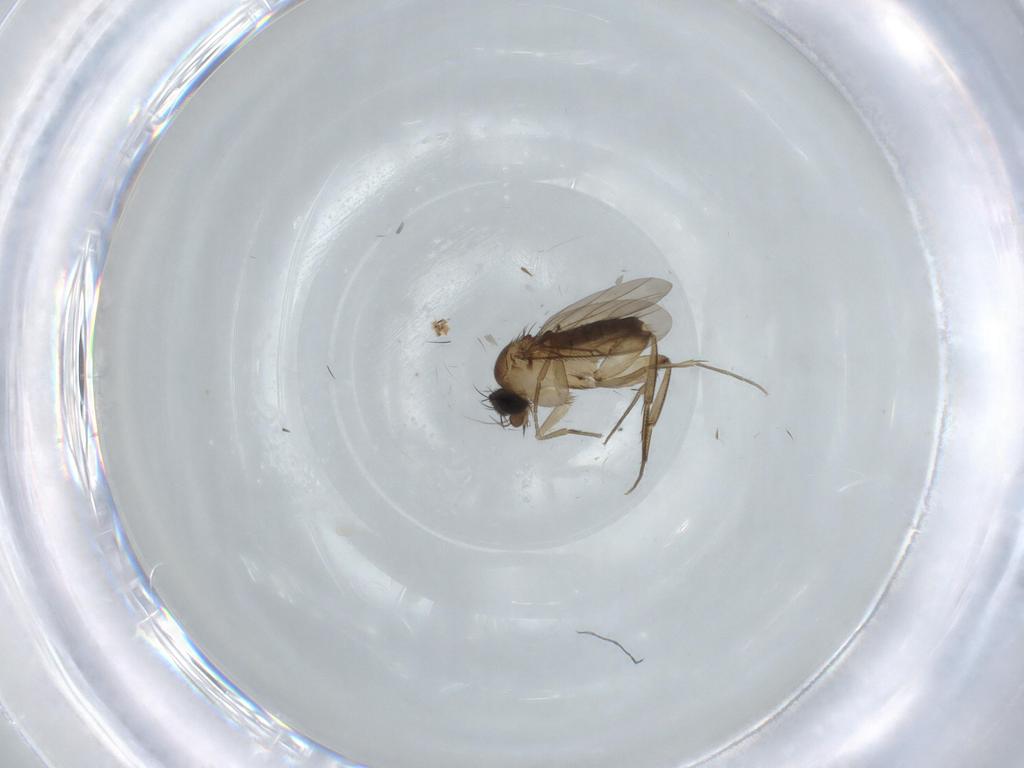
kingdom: Animalia
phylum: Arthropoda
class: Insecta
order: Diptera
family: Phoridae
